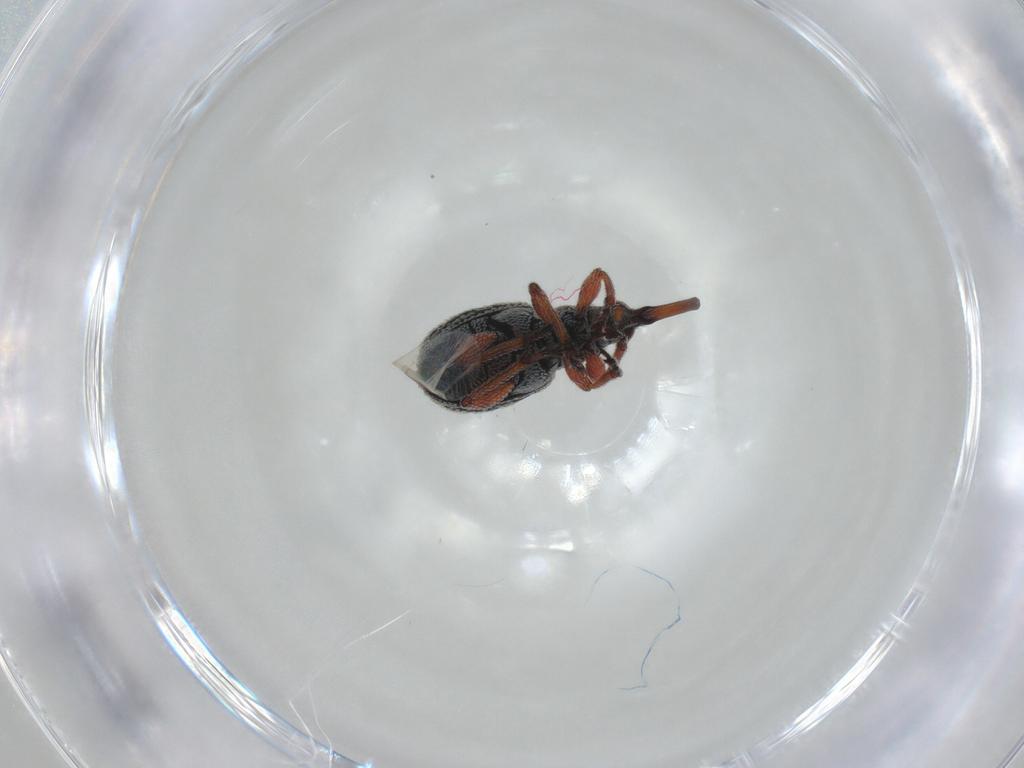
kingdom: Animalia
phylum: Arthropoda
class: Insecta
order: Coleoptera
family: Brentidae
